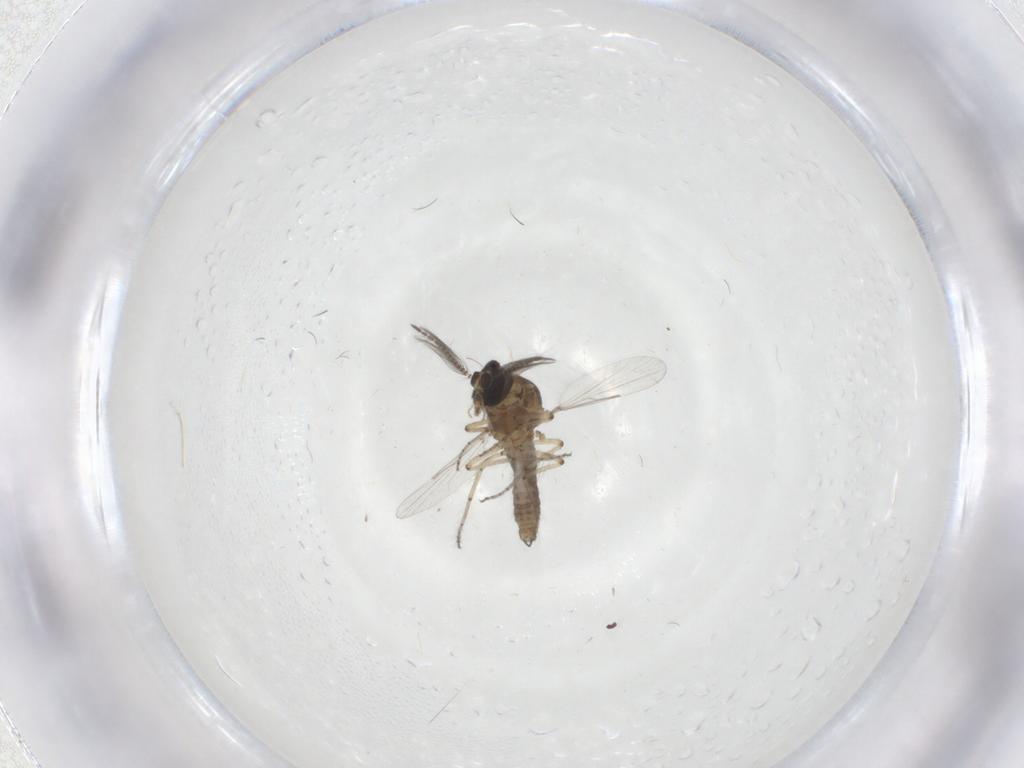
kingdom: Animalia
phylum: Arthropoda
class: Insecta
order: Diptera
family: Ceratopogonidae
